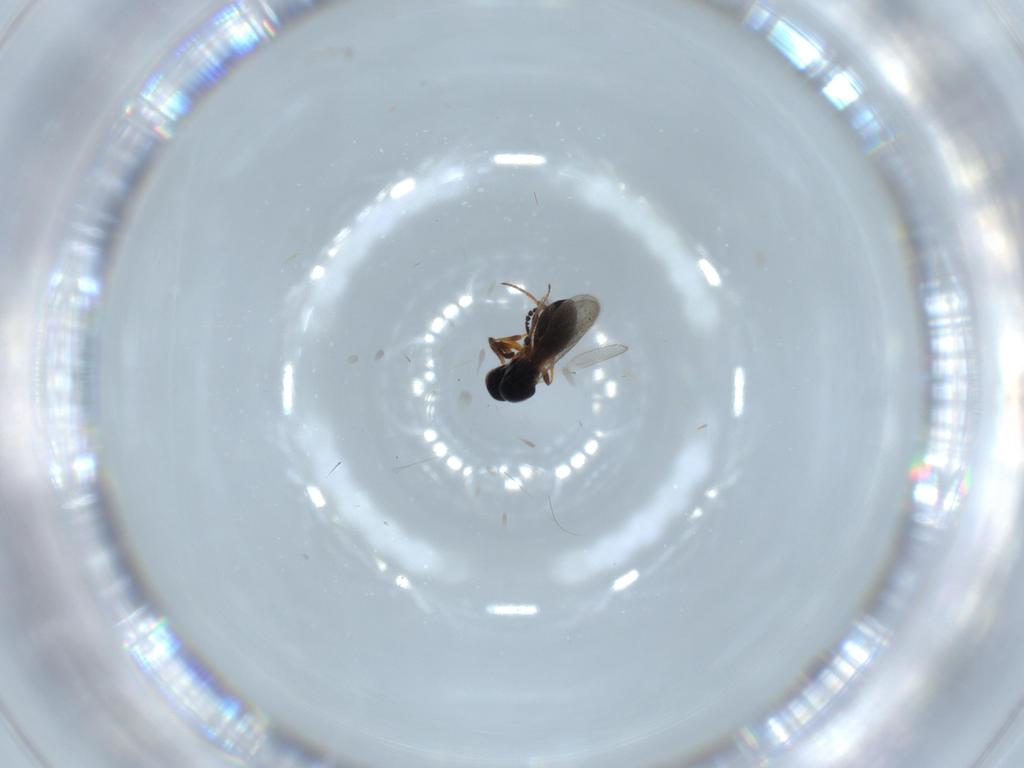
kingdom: Animalia
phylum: Arthropoda
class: Insecta
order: Hymenoptera
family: Platygastridae
